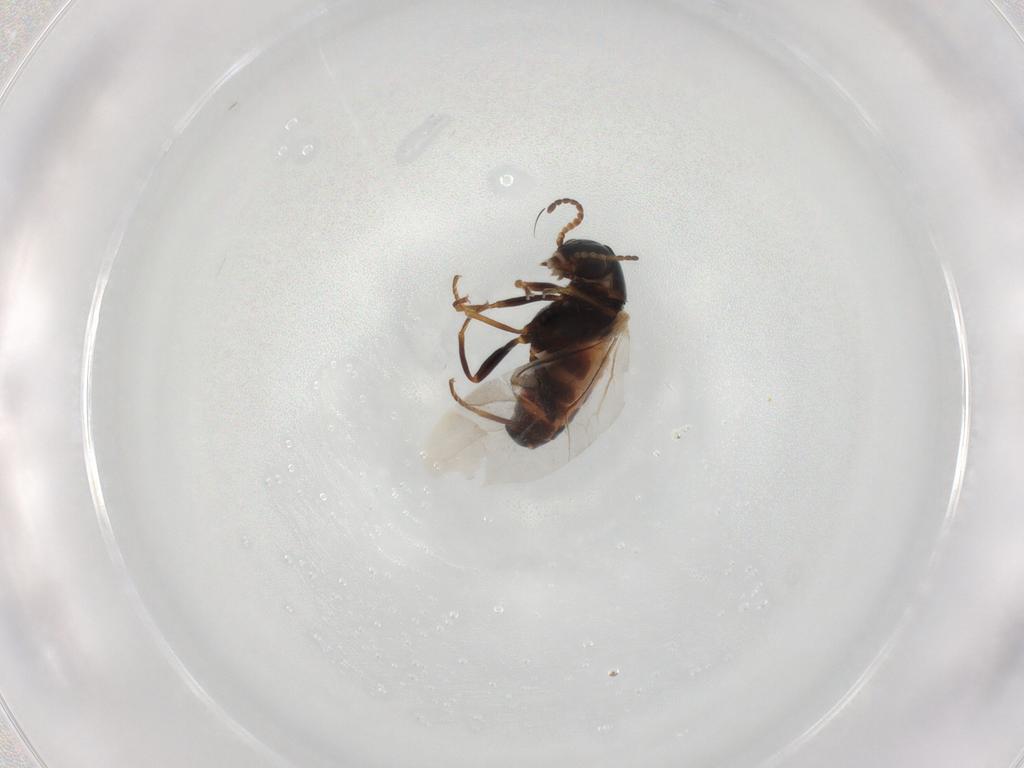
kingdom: Animalia
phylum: Arthropoda
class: Insecta
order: Coleoptera
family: Melyridae
